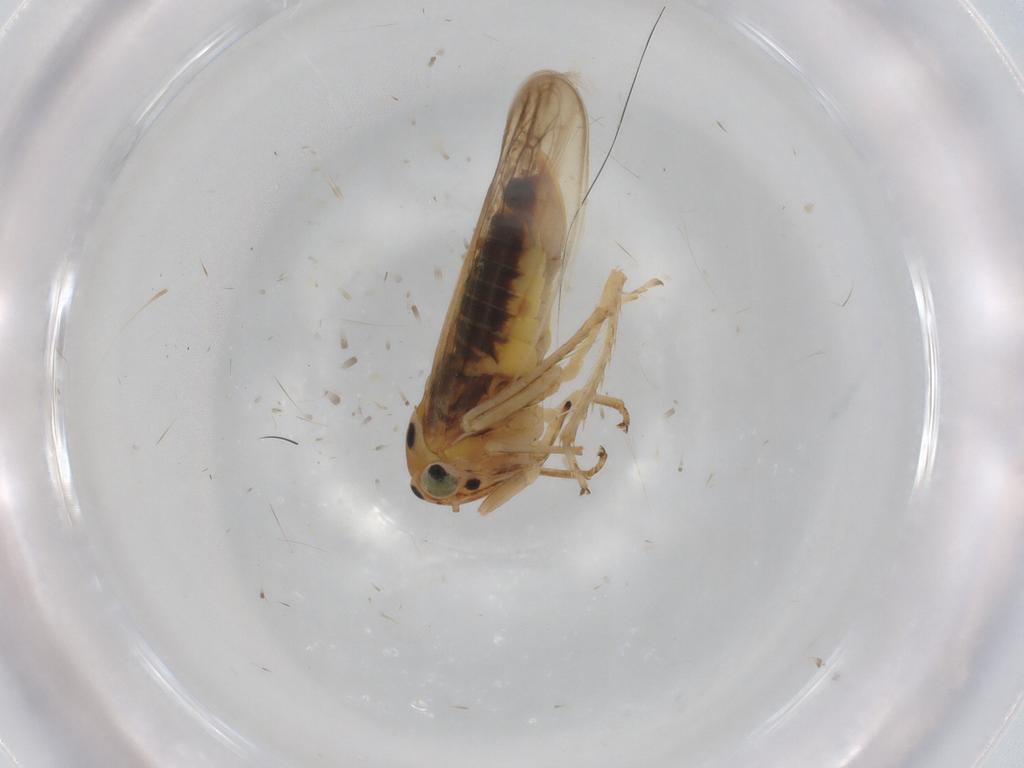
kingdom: Animalia
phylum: Arthropoda
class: Insecta
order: Hemiptera
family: Cicadellidae
